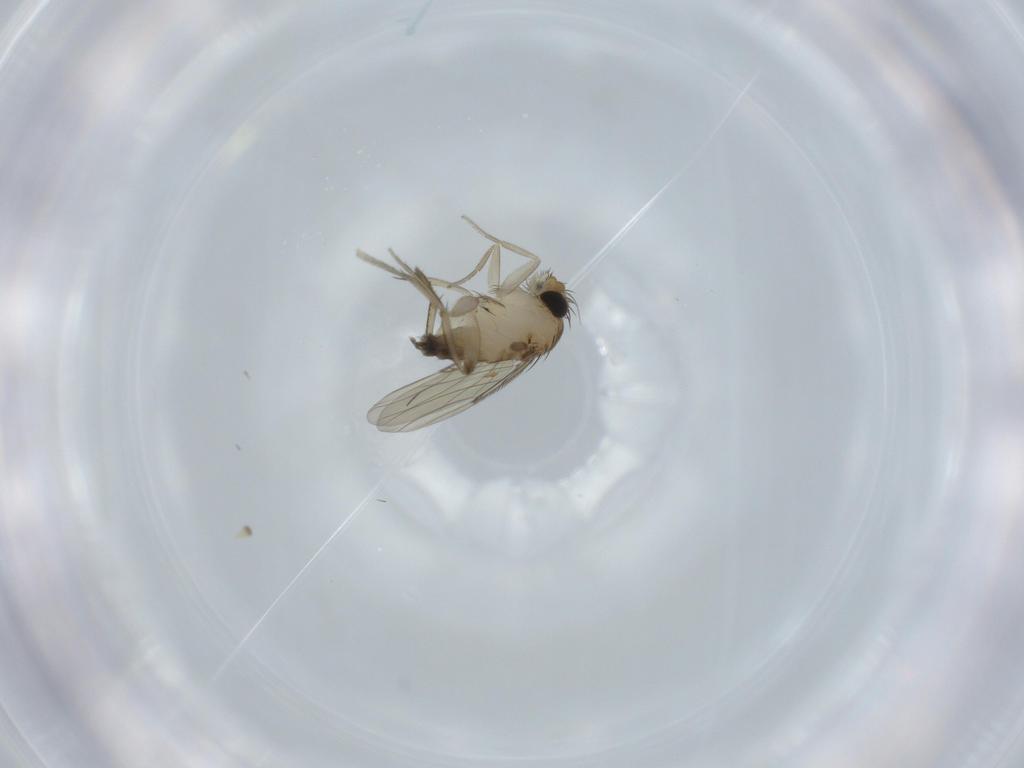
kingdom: Animalia
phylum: Arthropoda
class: Insecta
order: Diptera
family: Phoridae
